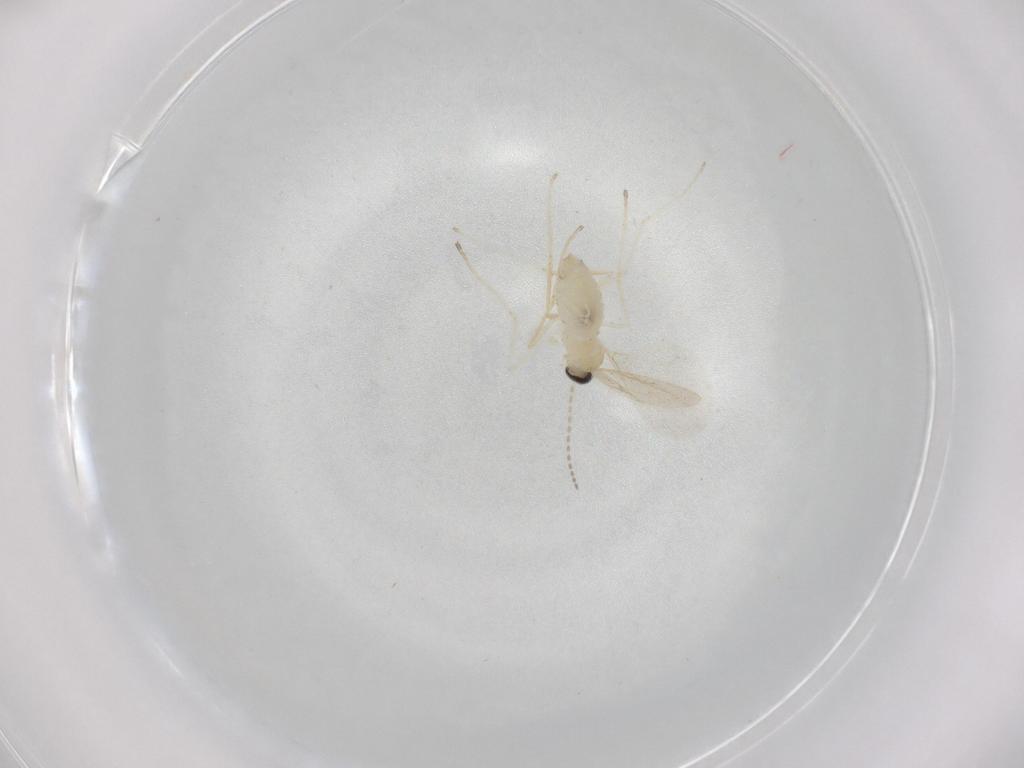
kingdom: Animalia
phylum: Arthropoda
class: Insecta
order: Diptera
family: Cecidomyiidae
